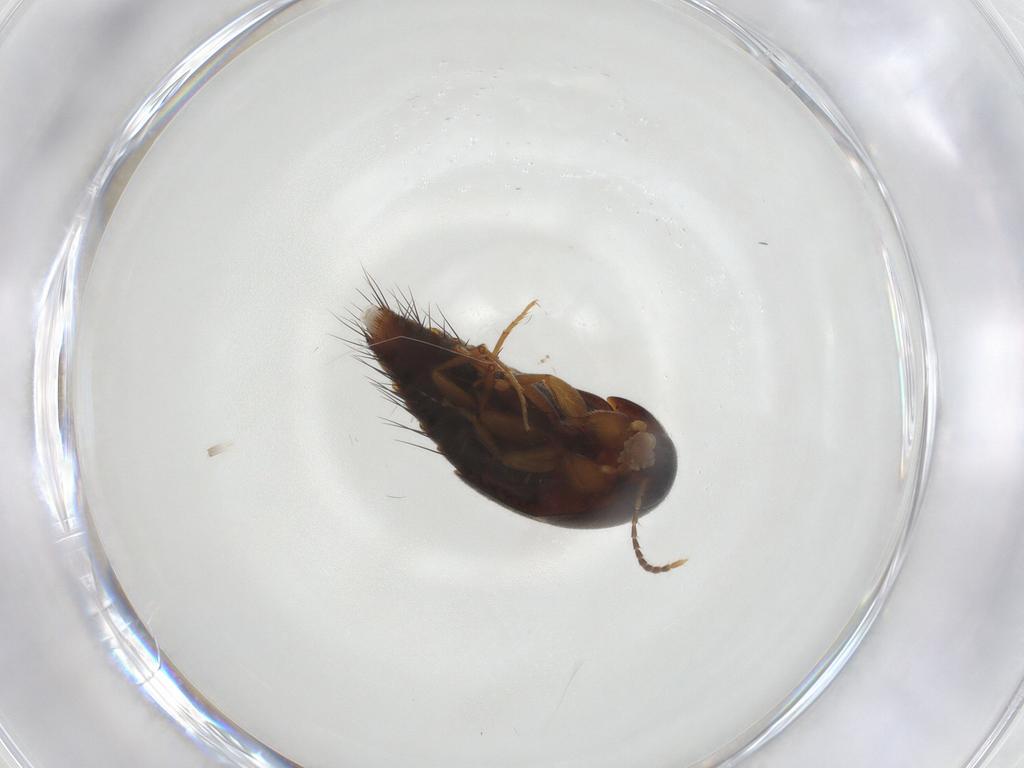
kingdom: Animalia
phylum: Arthropoda
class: Insecta
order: Coleoptera
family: Staphylinidae
